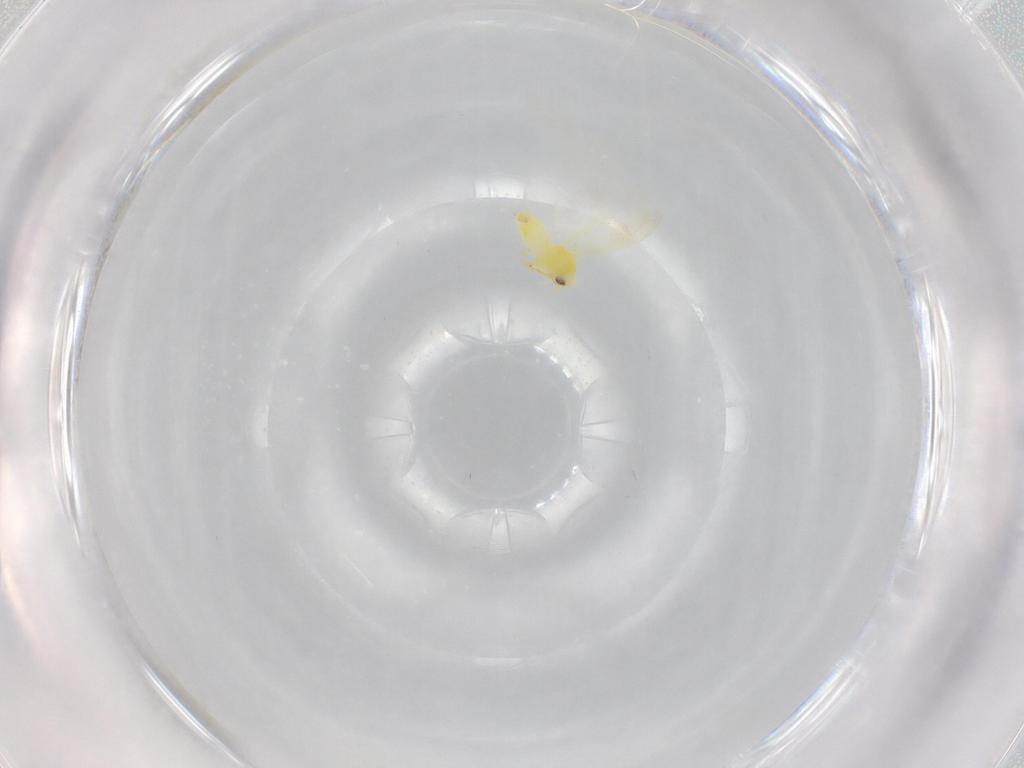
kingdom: Animalia
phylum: Arthropoda
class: Insecta
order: Hemiptera
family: Aleyrodidae
